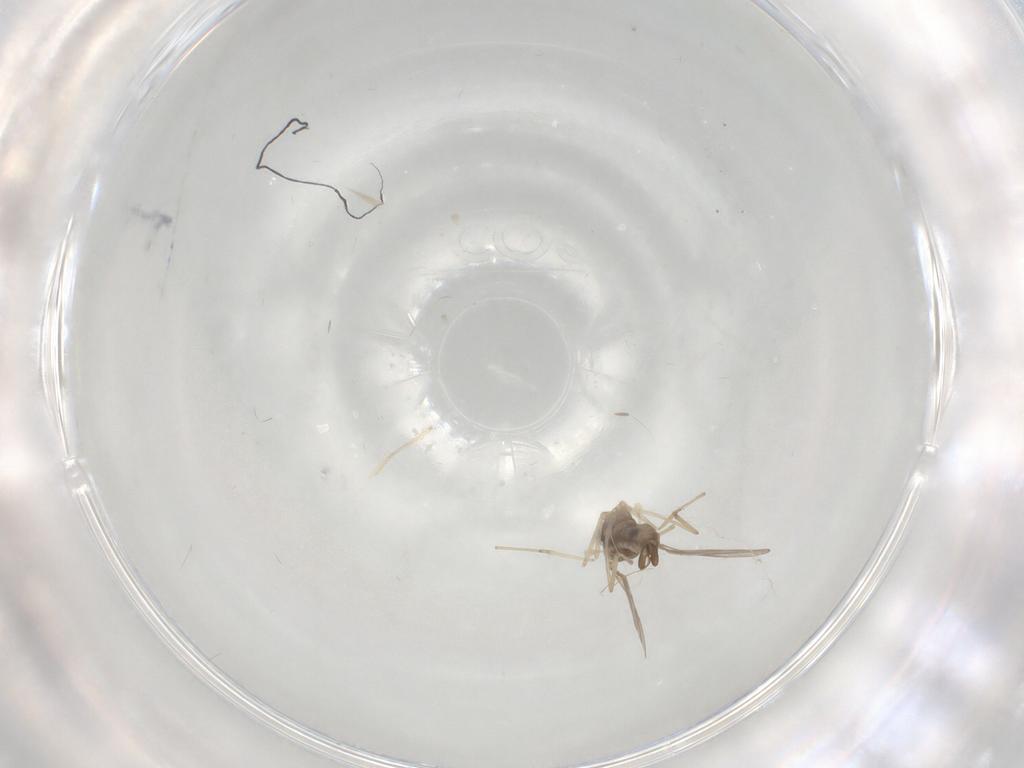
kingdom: Animalia
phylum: Arthropoda
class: Insecta
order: Diptera
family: Cecidomyiidae
